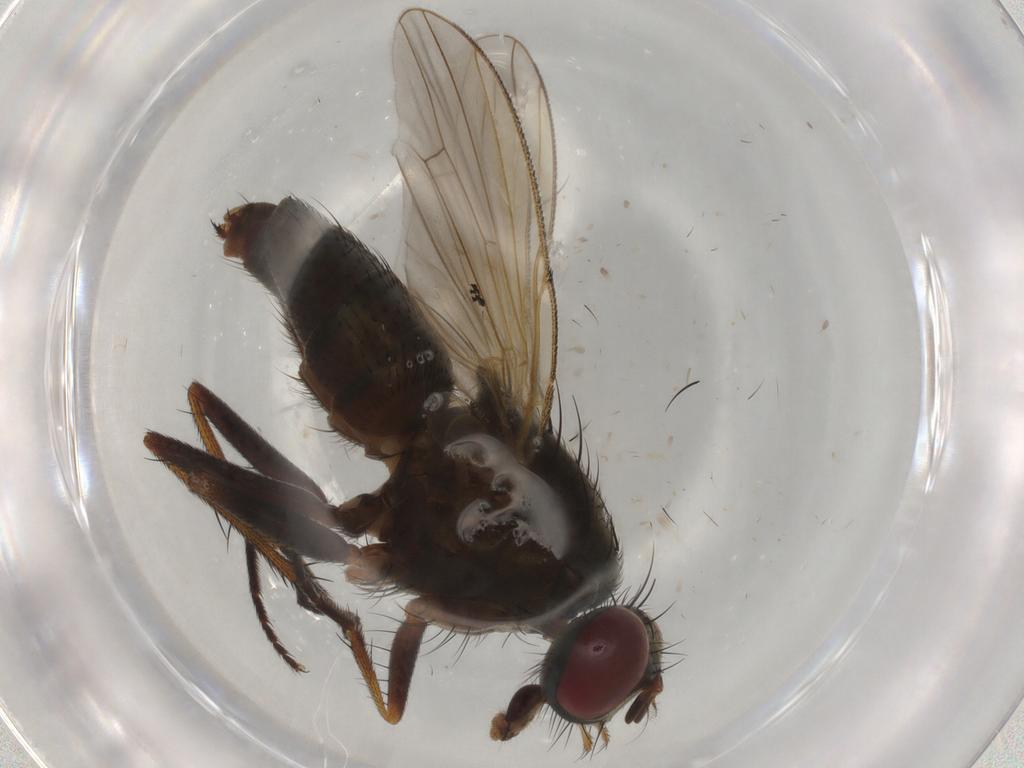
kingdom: Animalia
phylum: Arthropoda
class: Insecta
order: Diptera
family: Muscidae
